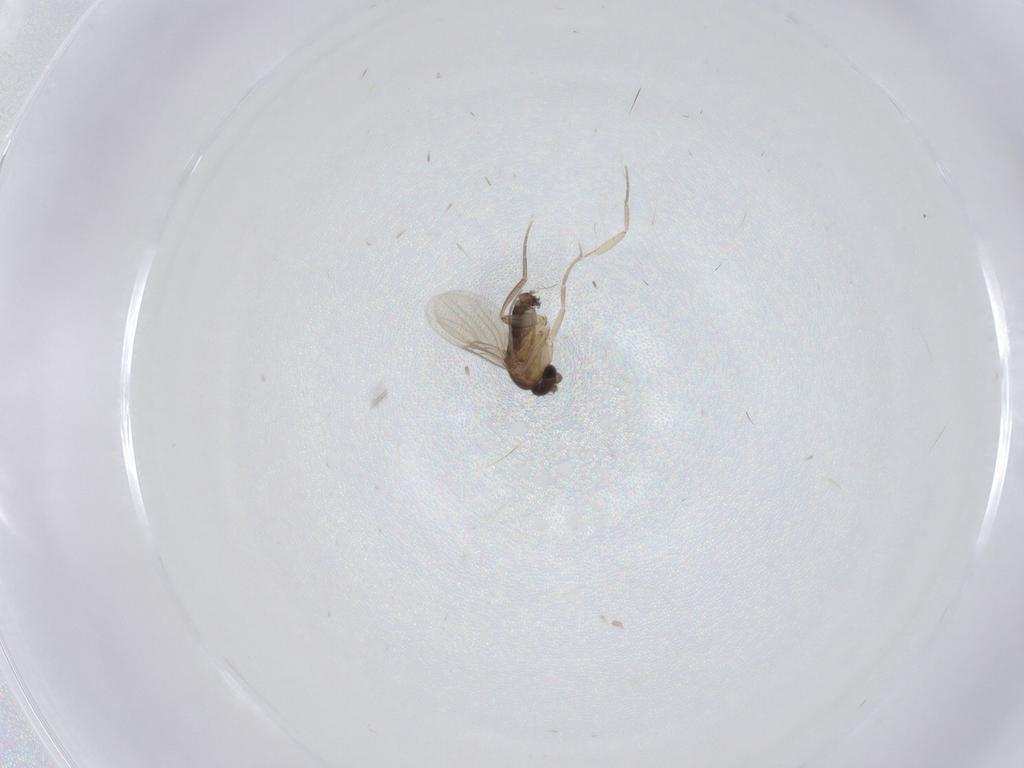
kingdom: Animalia
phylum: Arthropoda
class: Insecta
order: Diptera
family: Phoridae
